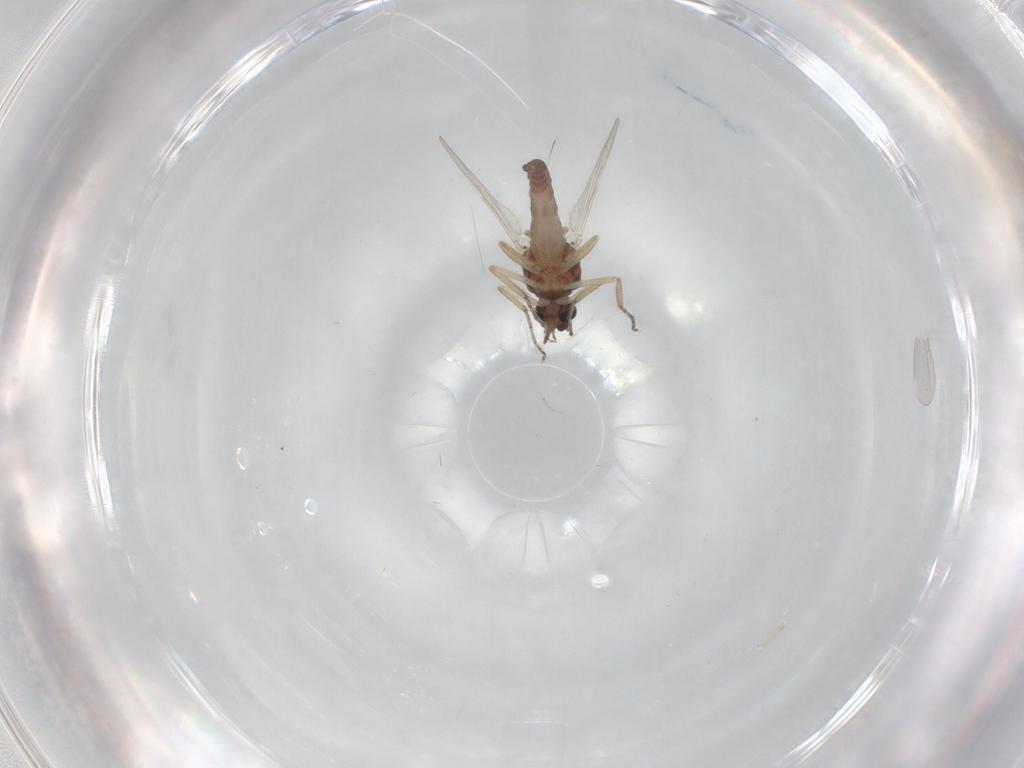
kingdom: Animalia
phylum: Arthropoda
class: Insecta
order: Diptera
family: Ceratopogonidae
